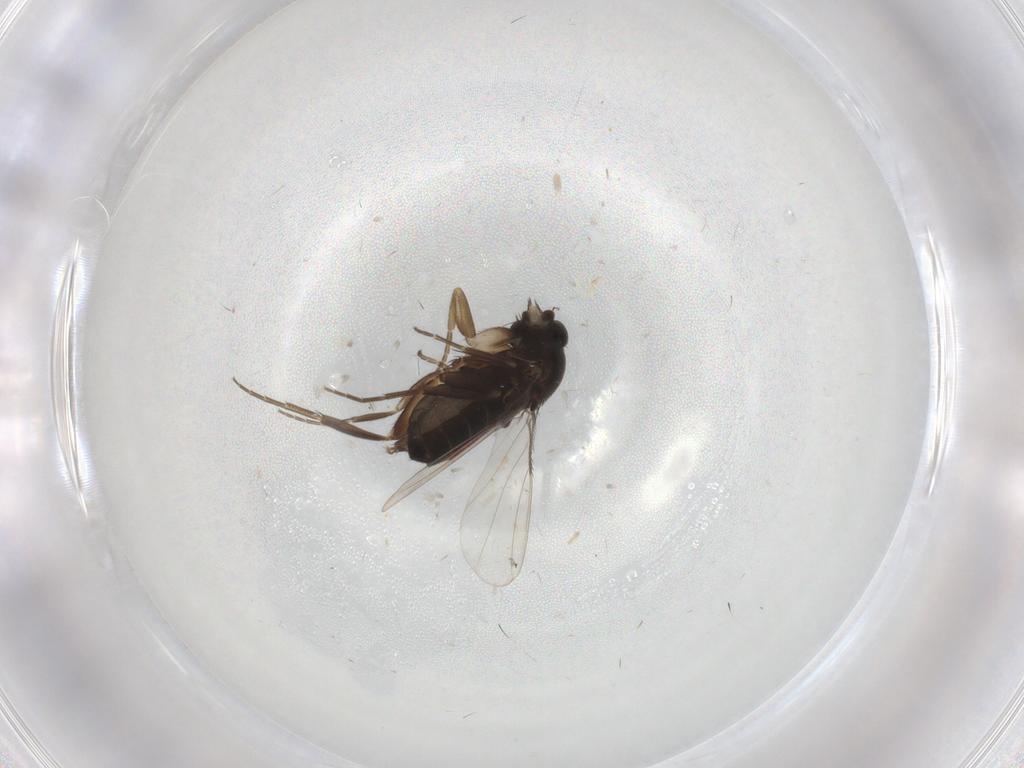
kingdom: Animalia
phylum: Arthropoda
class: Insecta
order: Diptera
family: Phoridae
